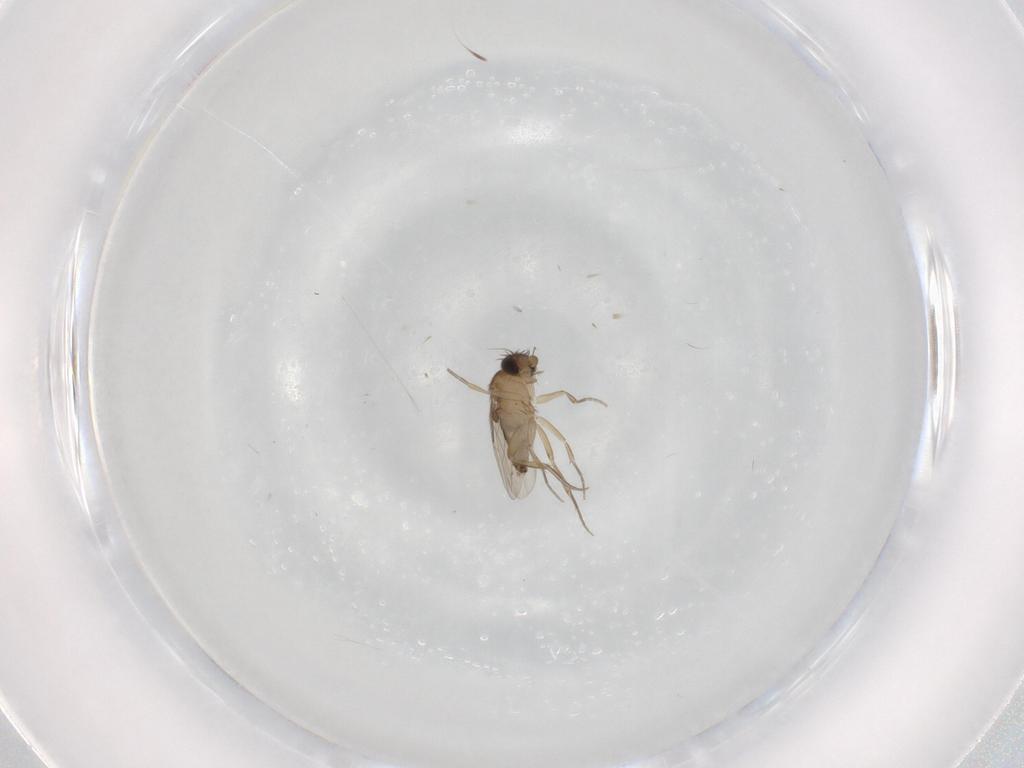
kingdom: Animalia
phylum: Arthropoda
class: Insecta
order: Diptera
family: Phoridae
